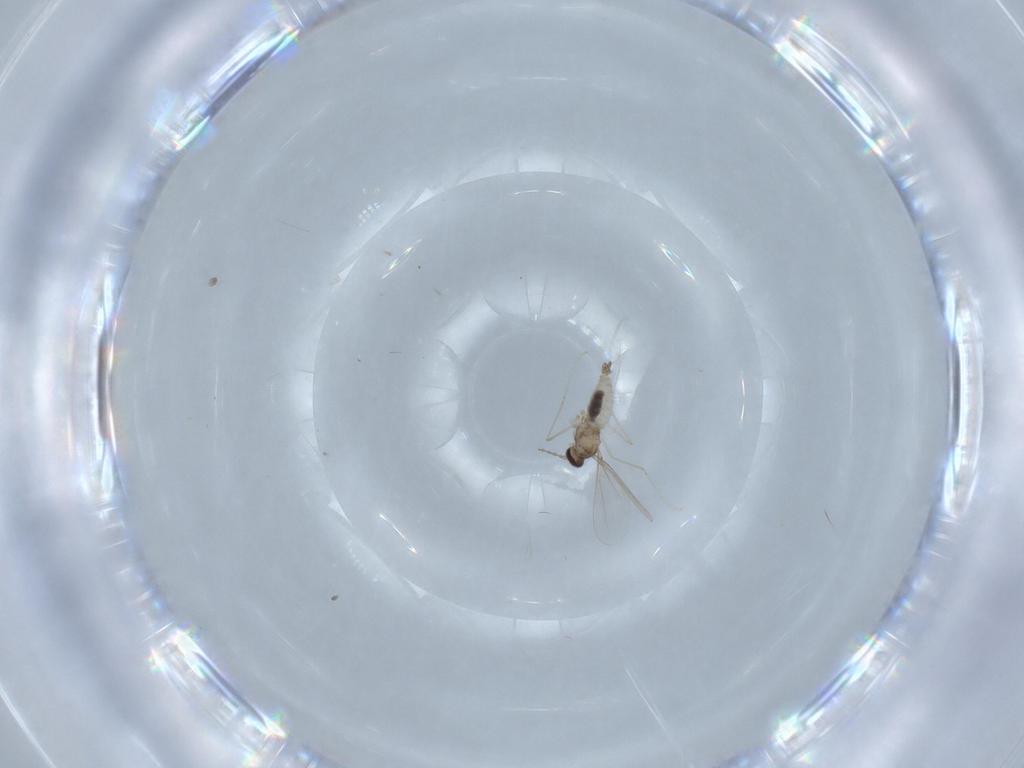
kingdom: Animalia
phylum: Arthropoda
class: Insecta
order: Diptera
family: Cecidomyiidae
